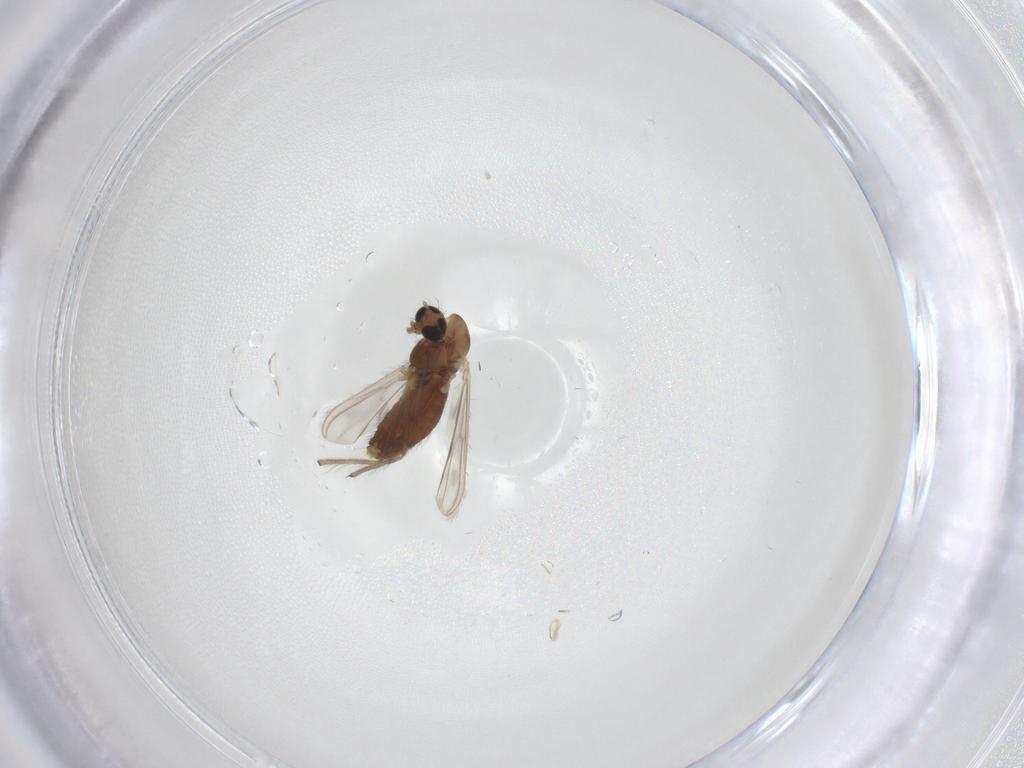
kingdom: Animalia
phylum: Arthropoda
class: Insecta
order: Diptera
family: Chironomidae
